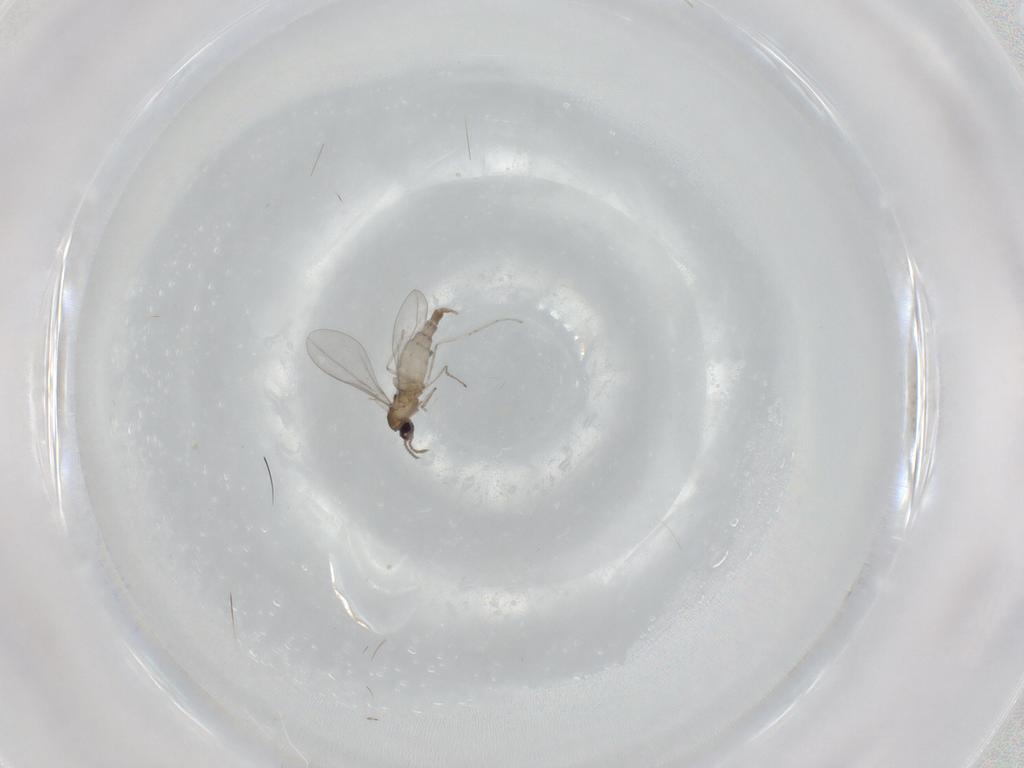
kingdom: Animalia
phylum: Arthropoda
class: Insecta
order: Diptera
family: Cecidomyiidae
